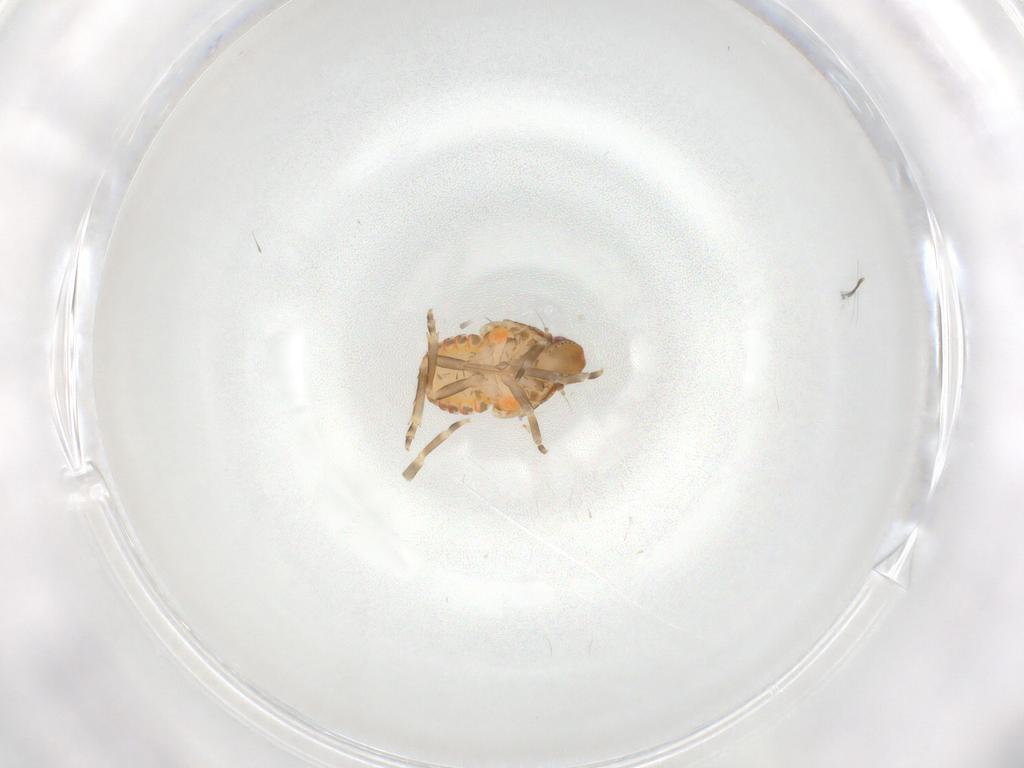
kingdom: Animalia
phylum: Arthropoda
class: Insecta
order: Hemiptera
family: Flatidae
